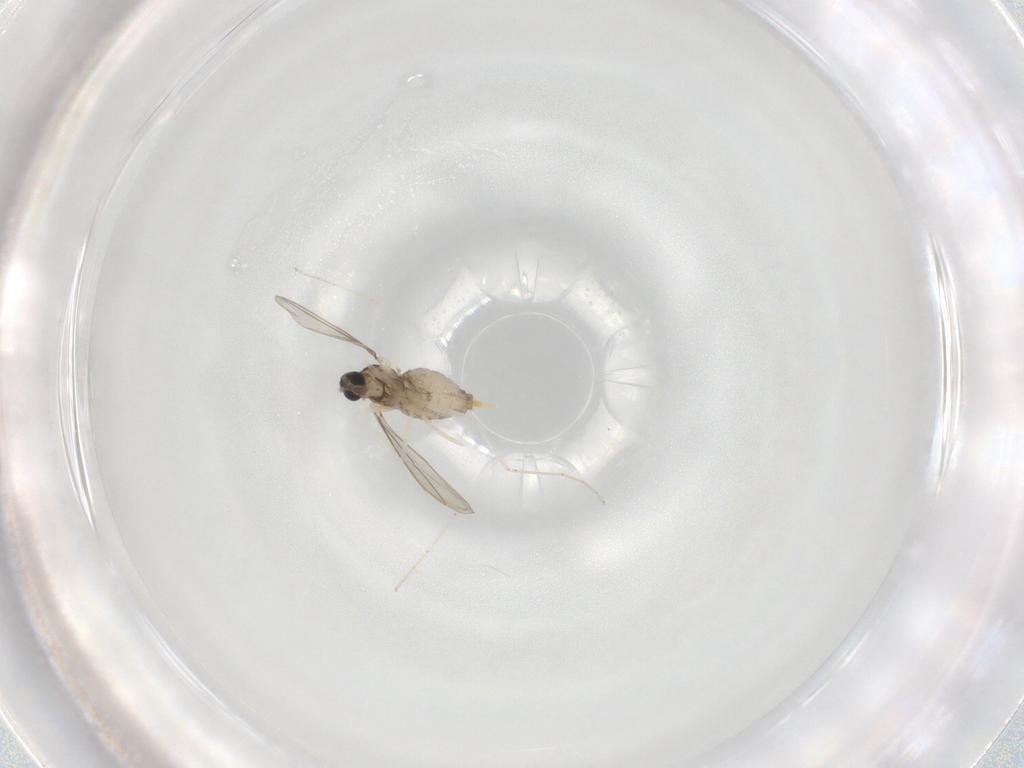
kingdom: Animalia
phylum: Arthropoda
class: Insecta
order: Diptera
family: Cecidomyiidae
